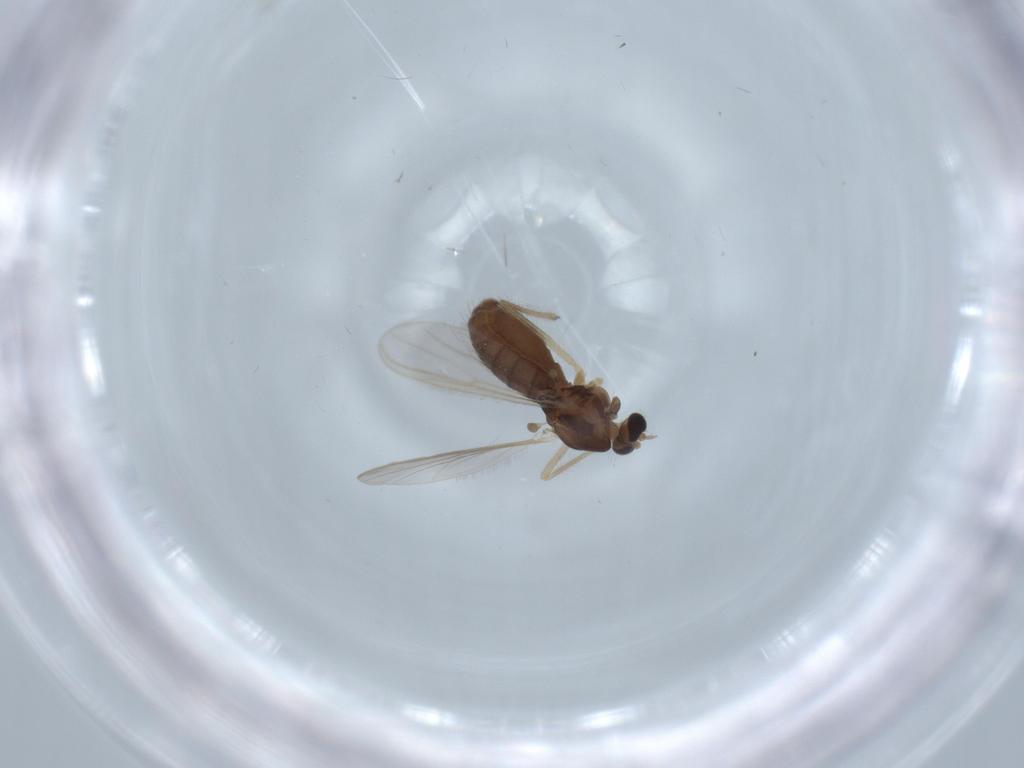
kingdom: Animalia
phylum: Arthropoda
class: Insecta
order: Diptera
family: Chironomidae
